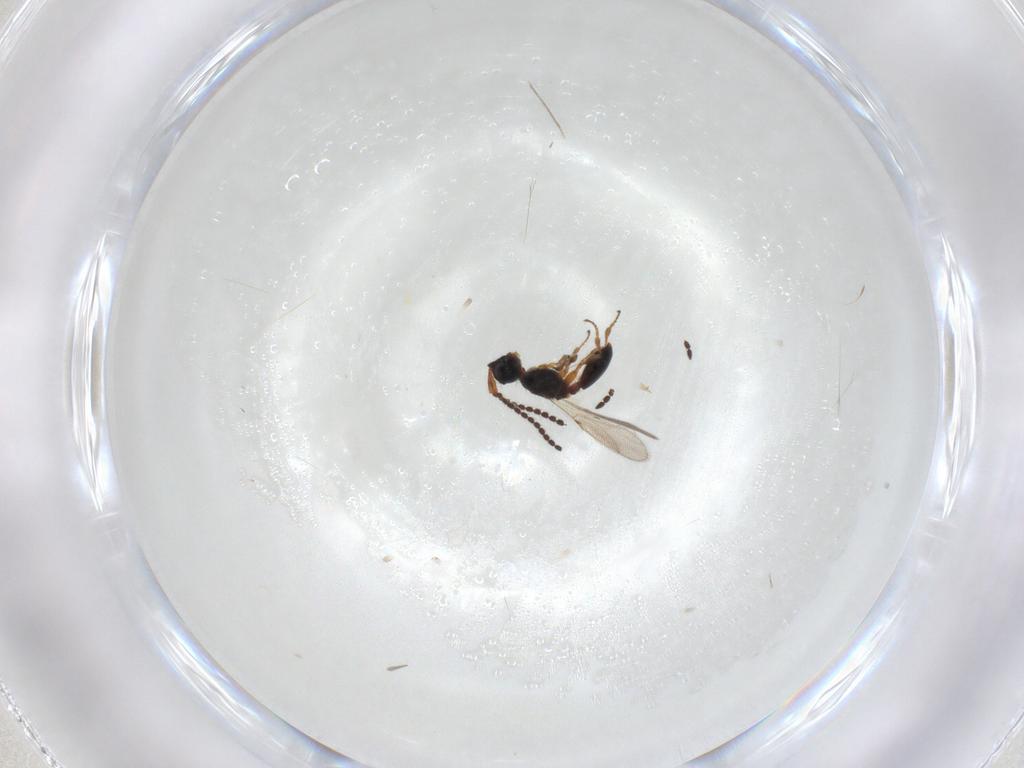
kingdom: Animalia
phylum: Arthropoda
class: Insecta
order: Hymenoptera
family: Diapriidae
